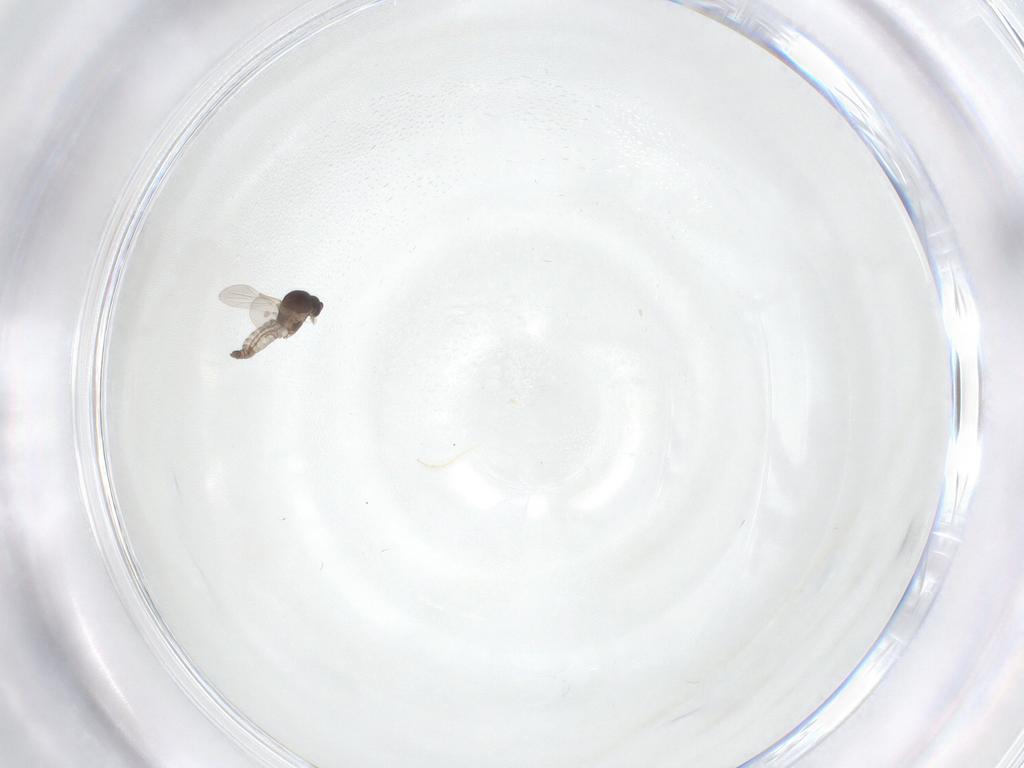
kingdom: Animalia
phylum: Arthropoda
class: Insecta
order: Diptera
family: Ceratopogonidae
